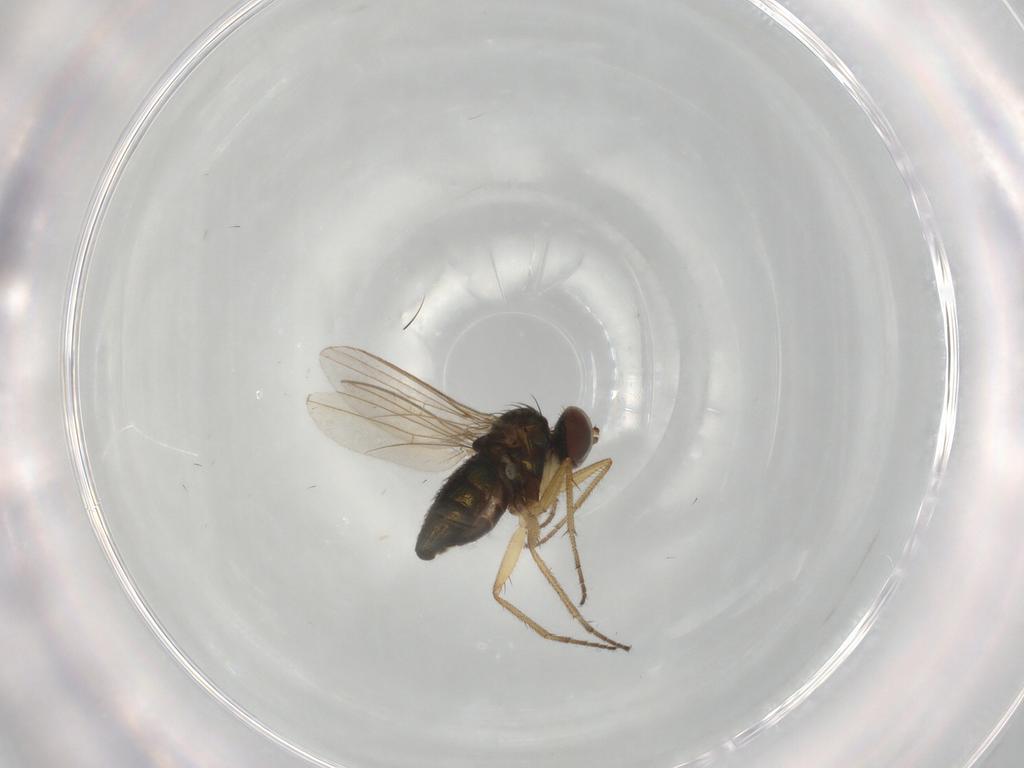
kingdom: Animalia
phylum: Arthropoda
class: Insecta
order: Diptera
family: Dolichopodidae
